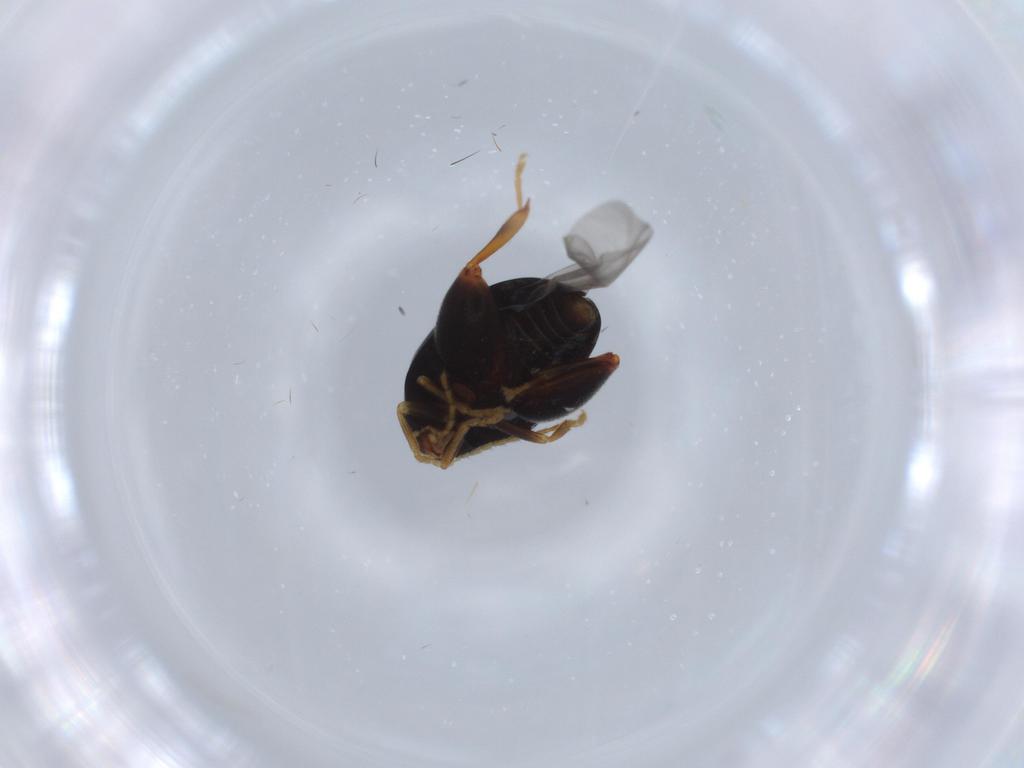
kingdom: Animalia
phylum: Arthropoda
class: Insecta
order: Coleoptera
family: Chrysomelidae
